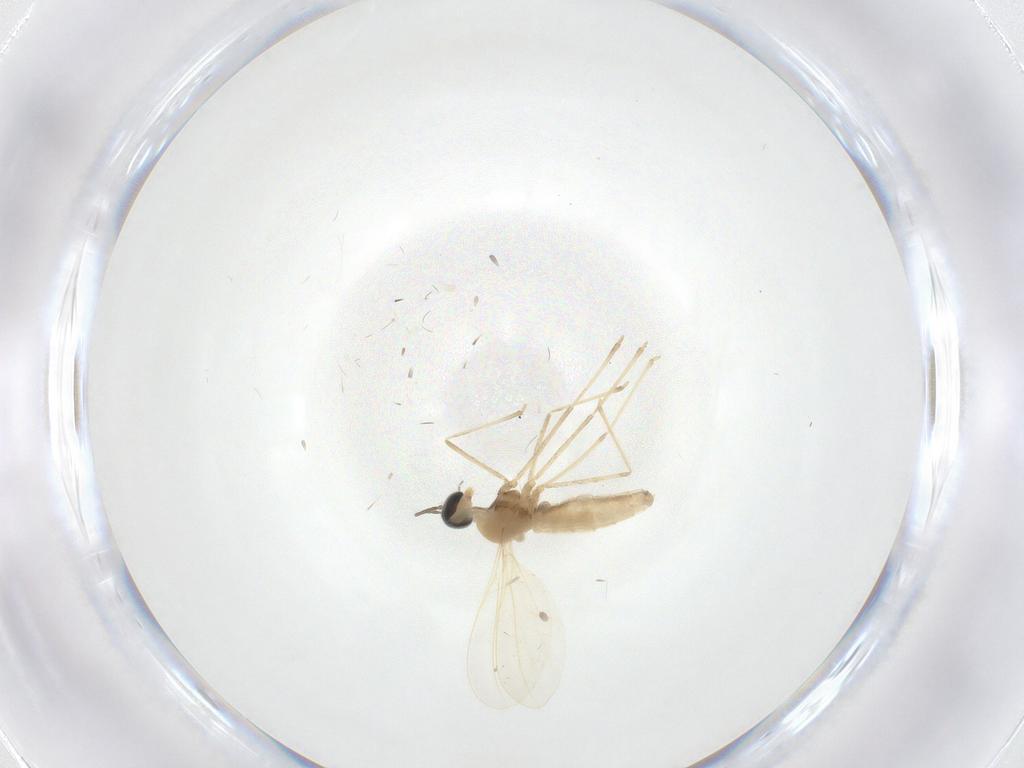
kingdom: Animalia
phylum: Arthropoda
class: Insecta
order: Diptera
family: Cecidomyiidae
